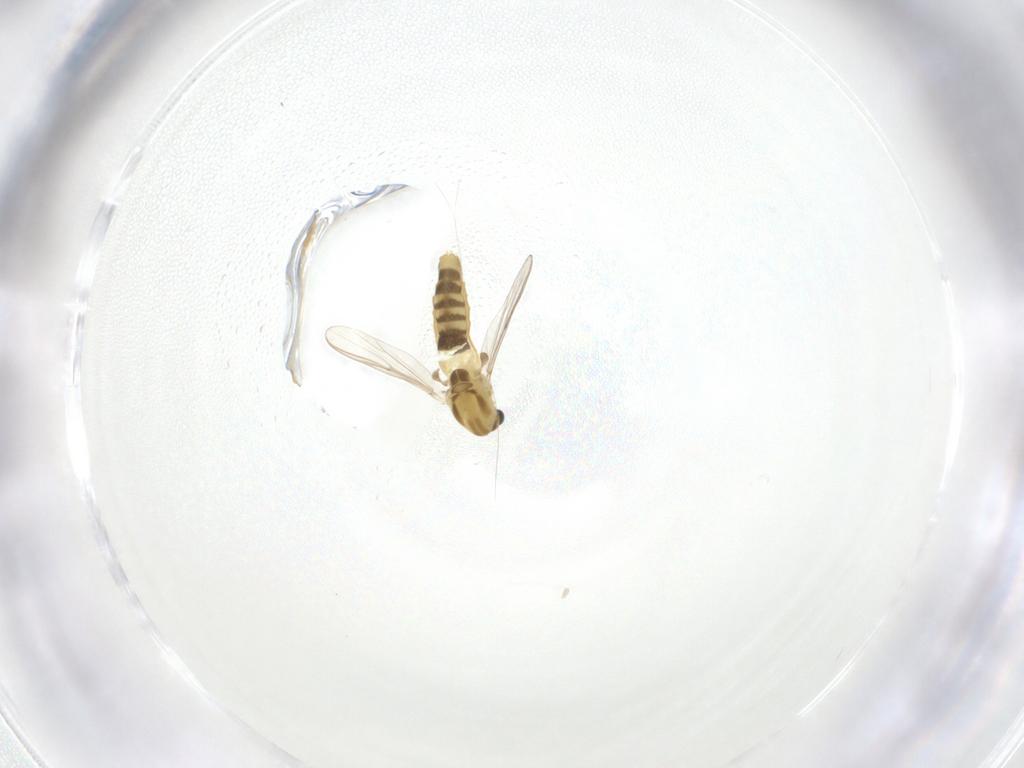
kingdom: Animalia
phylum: Arthropoda
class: Insecta
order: Diptera
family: Chironomidae
